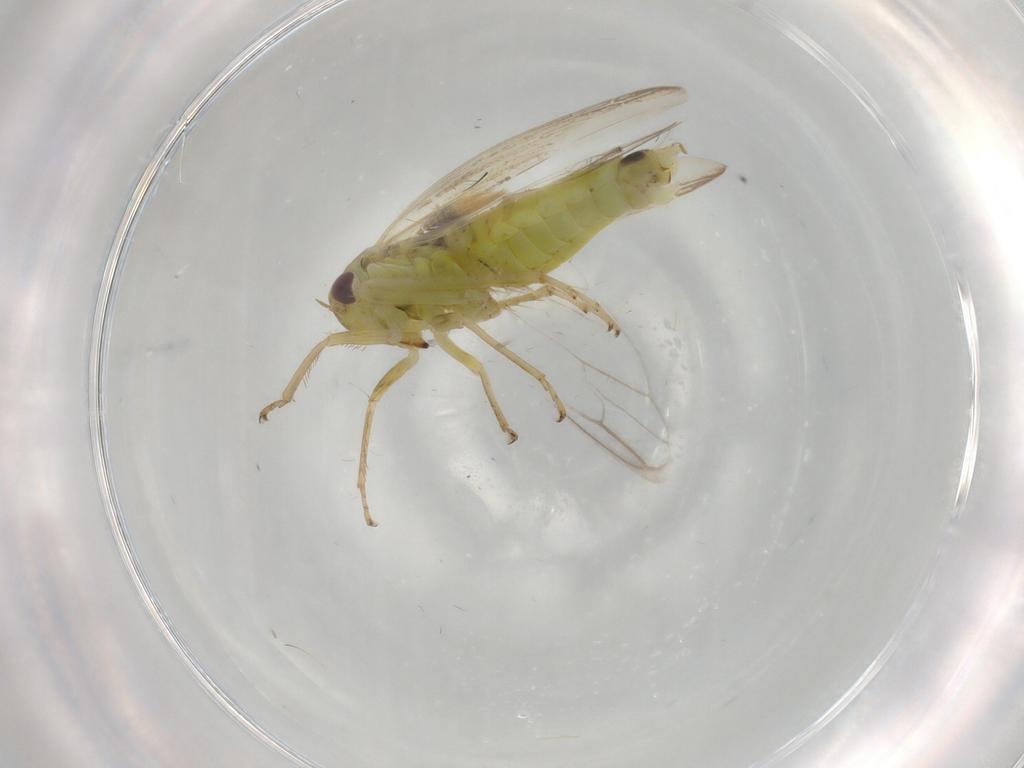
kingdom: Animalia
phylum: Arthropoda
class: Insecta
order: Hemiptera
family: Cicadellidae
